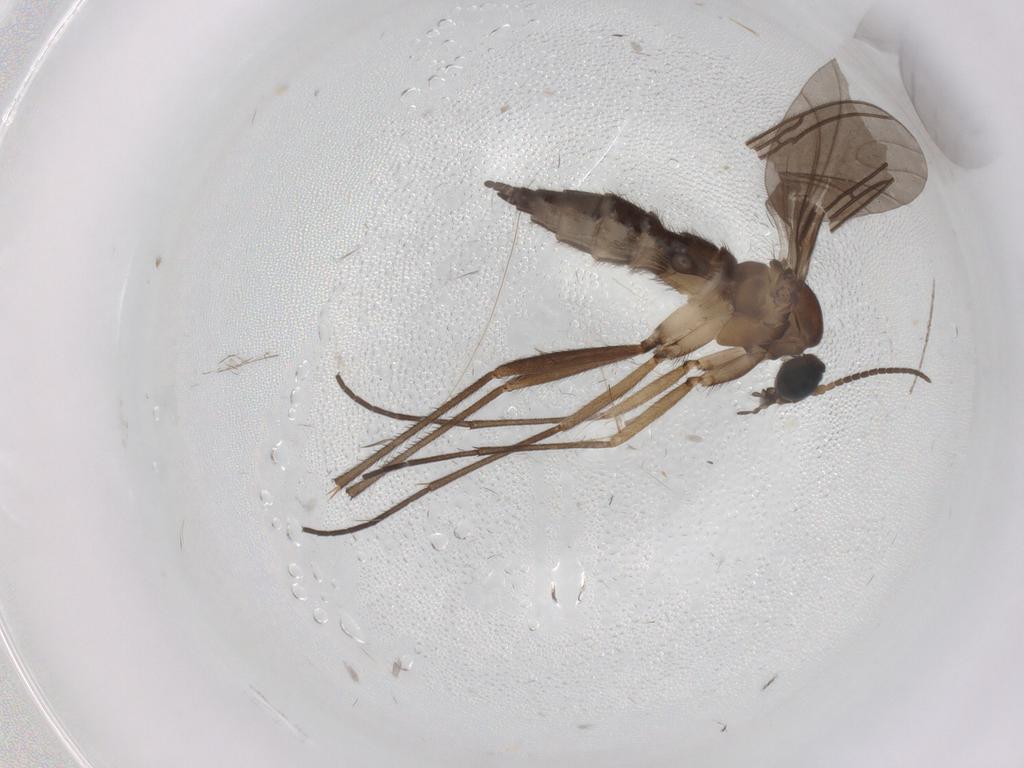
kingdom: Animalia
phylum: Arthropoda
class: Insecta
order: Diptera
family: Sciaridae
